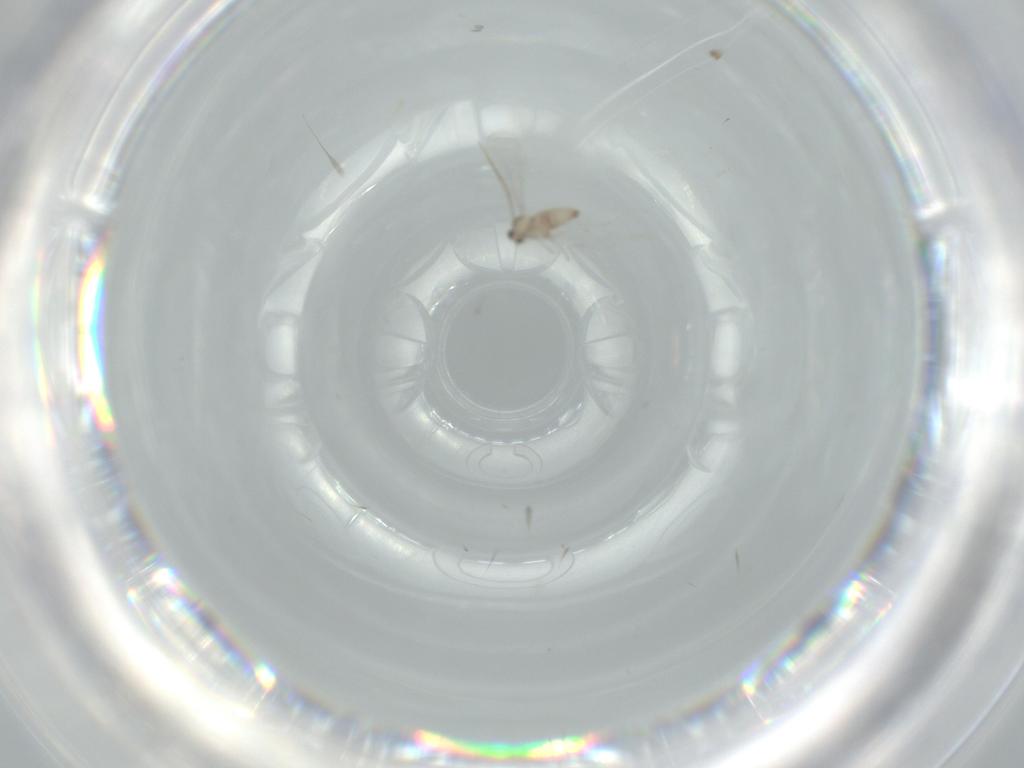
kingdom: Animalia
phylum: Arthropoda
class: Insecta
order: Diptera
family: Cecidomyiidae
